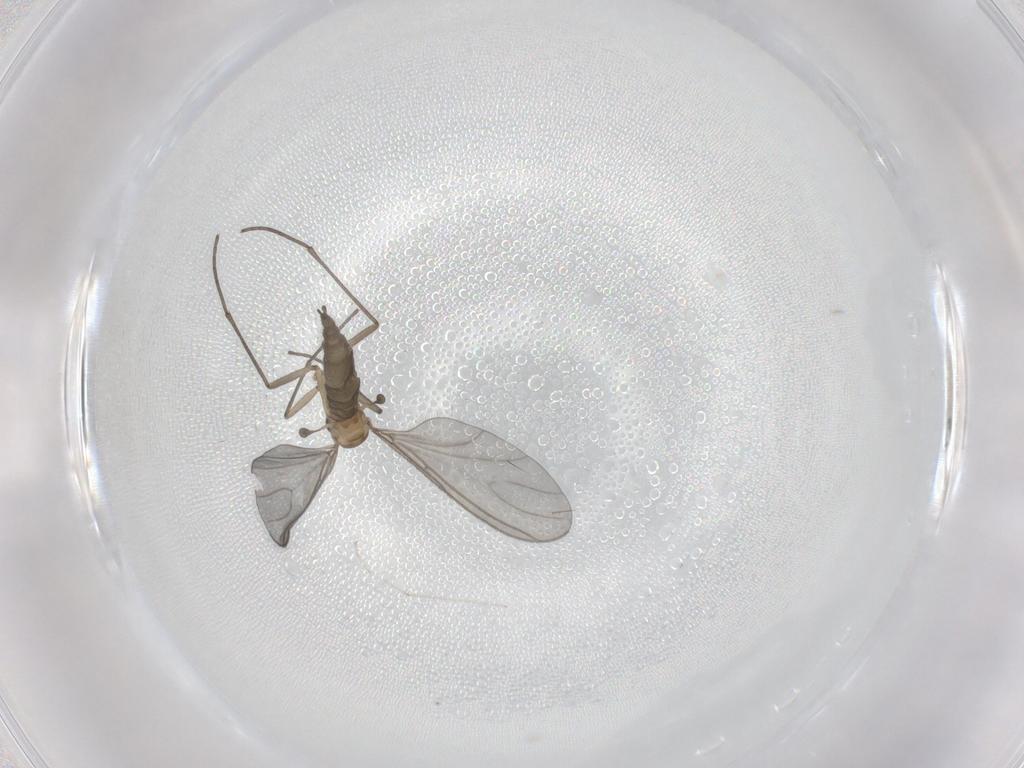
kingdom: Animalia
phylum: Arthropoda
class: Insecta
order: Diptera
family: Sciaridae
